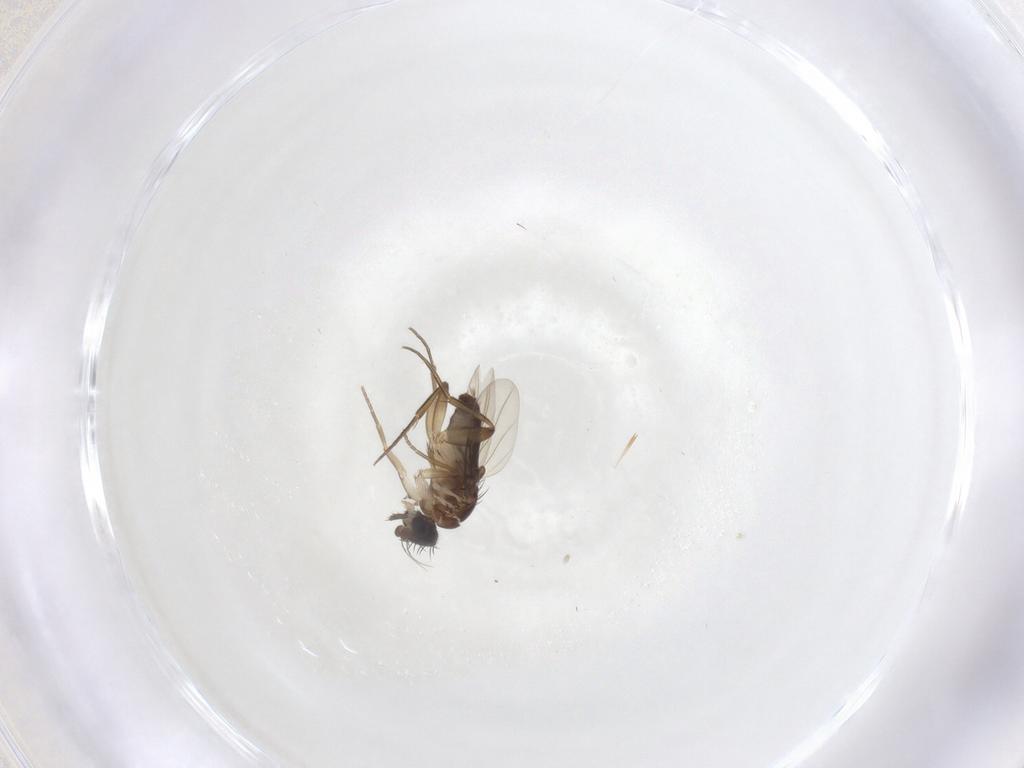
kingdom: Animalia
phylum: Arthropoda
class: Insecta
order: Diptera
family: Phoridae
